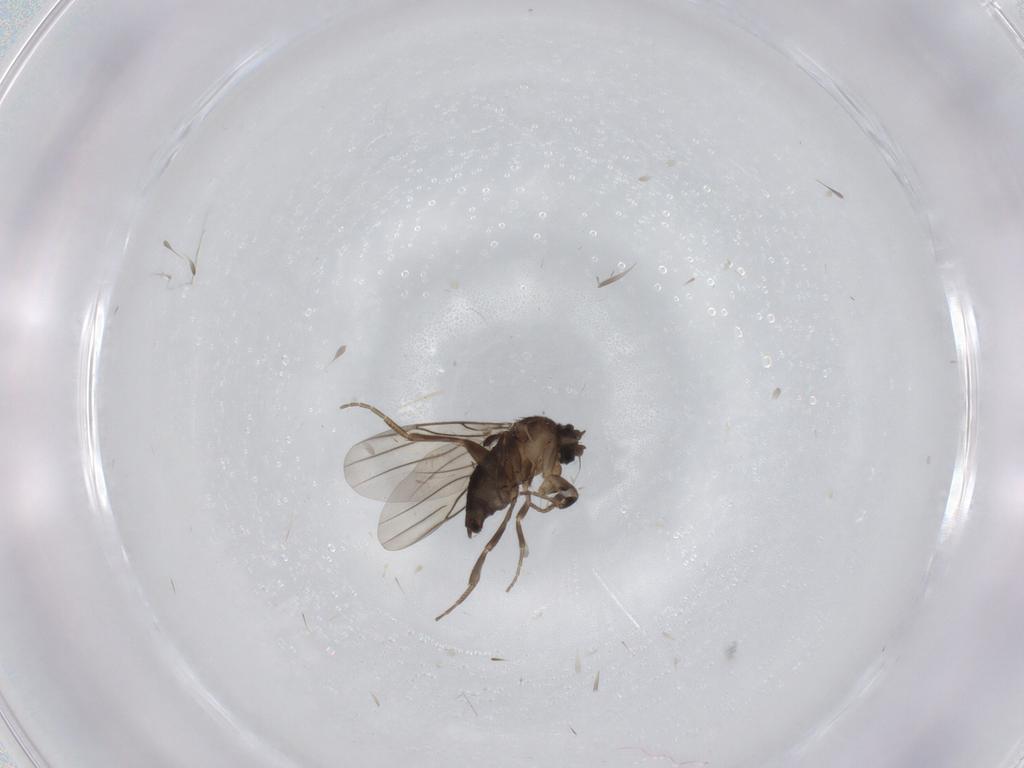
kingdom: Animalia
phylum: Arthropoda
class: Insecta
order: Diptera
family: Phoridae
